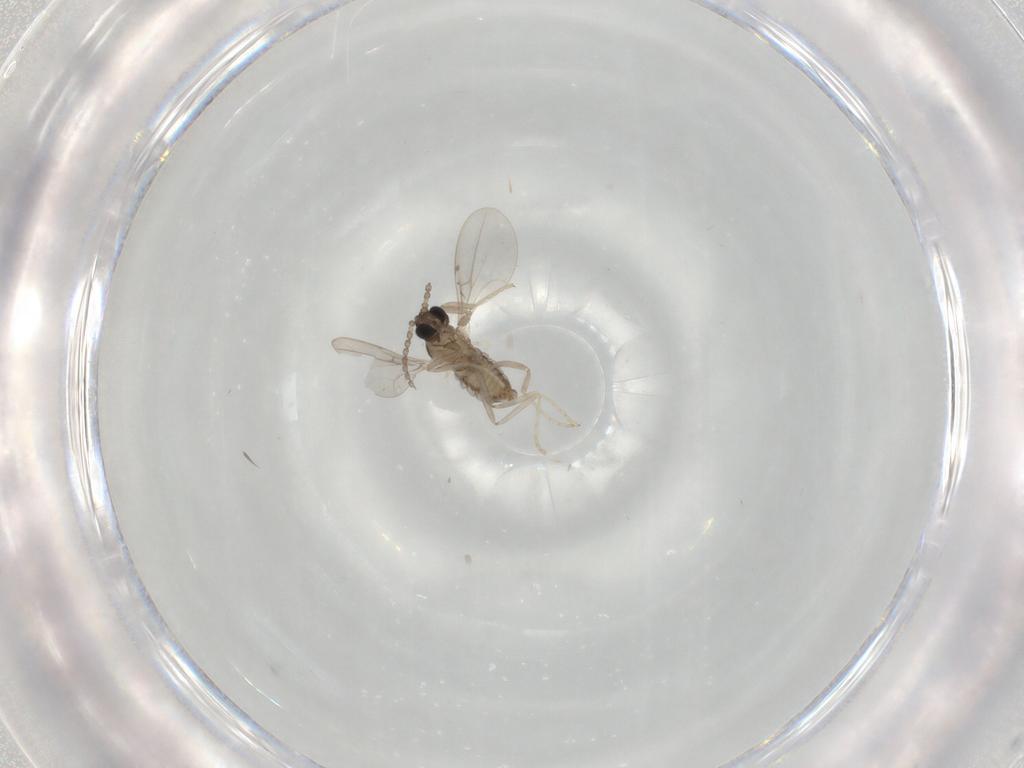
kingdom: Animalia
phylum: Arthropoda
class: Insecta
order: Diptera
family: Cecidomyiidae
